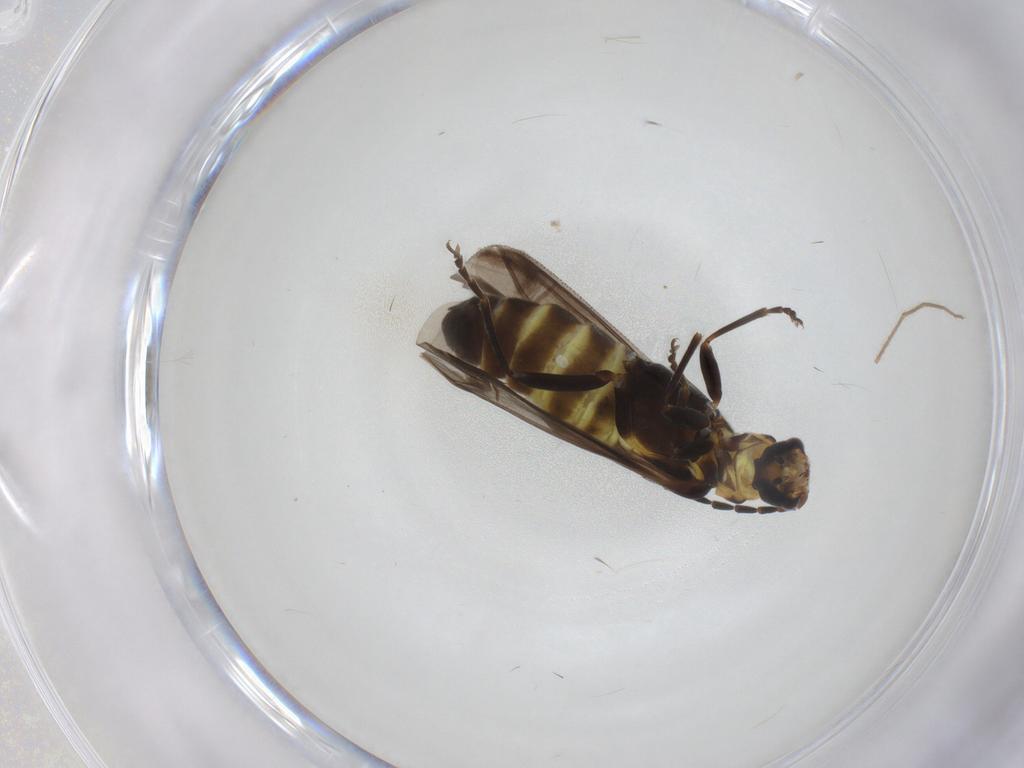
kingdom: Animalia
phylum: Arthropoda
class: Insecta
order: Coleoptera
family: Cantharidae
